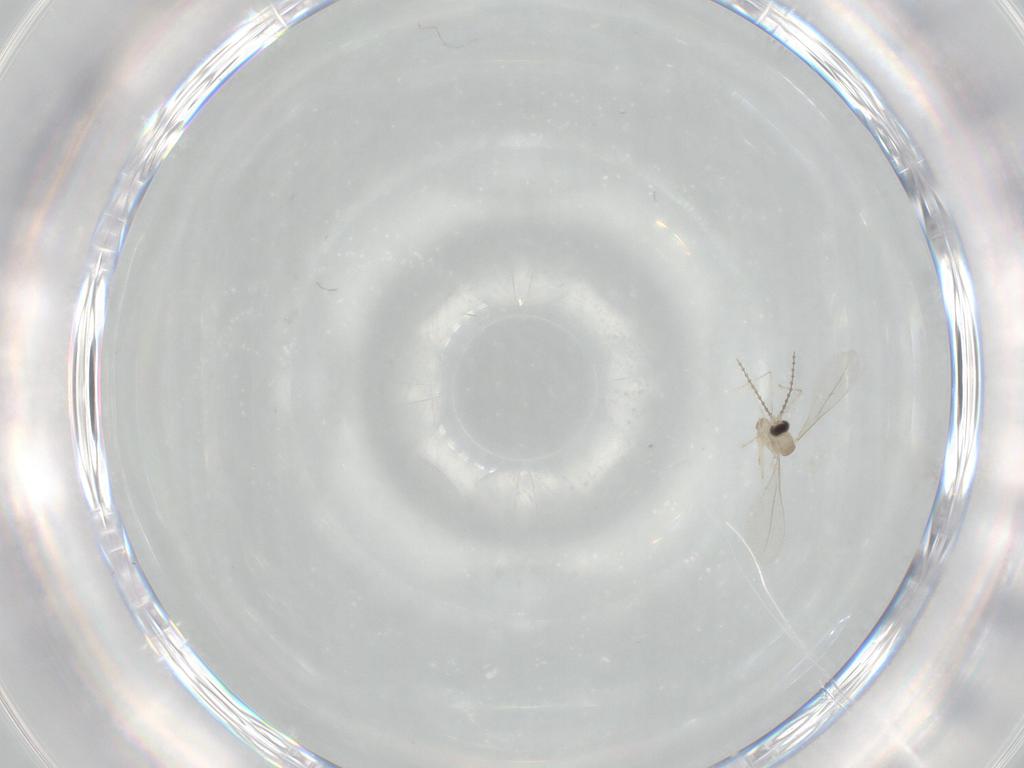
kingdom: Animalia
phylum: Arthropoda
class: Insecta
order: Diptera
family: Cecidomyiidae
